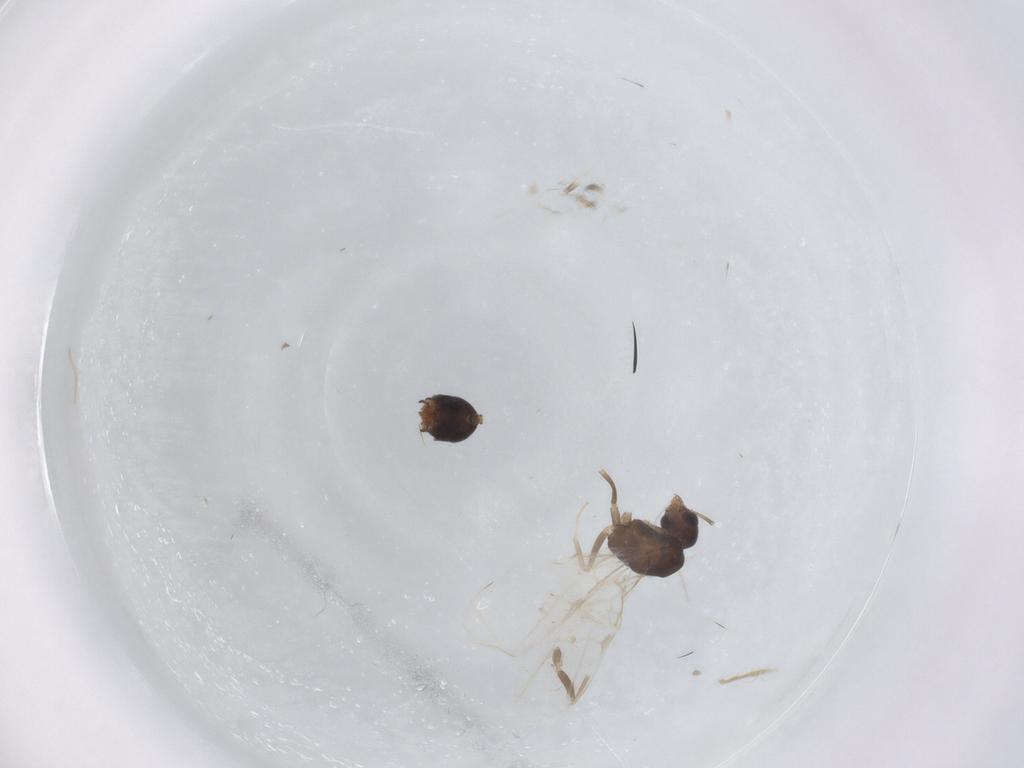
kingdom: Animalia
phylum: Arthropoda
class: Insecta
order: Hymenoptera
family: Formicidae
